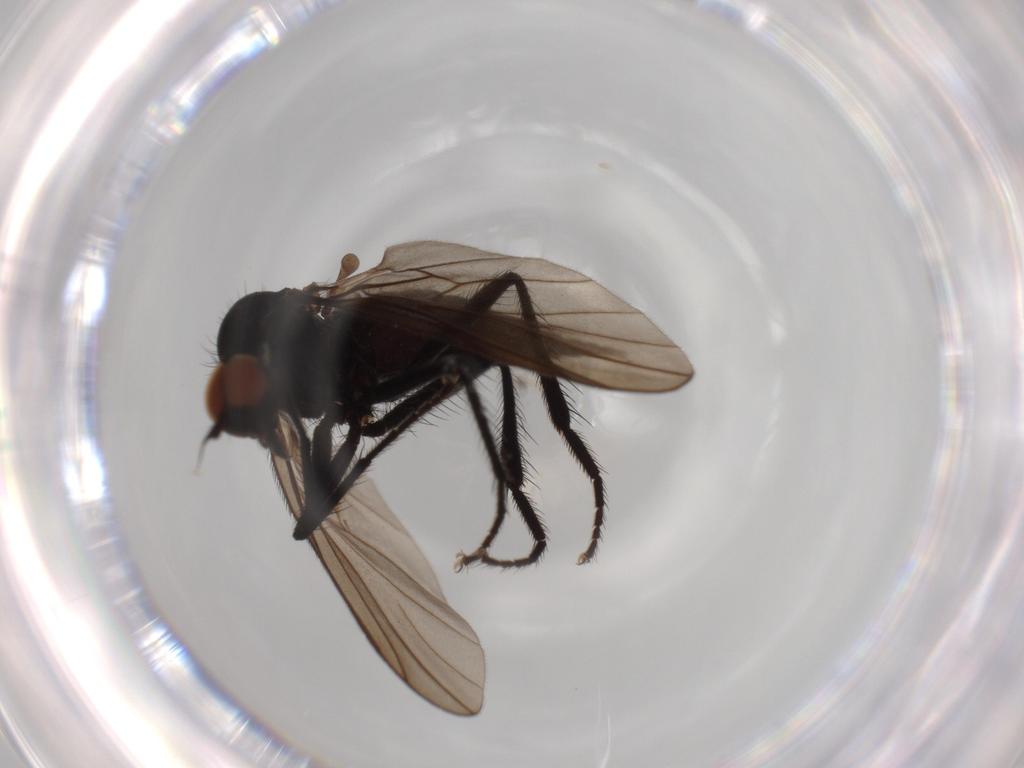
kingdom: Animalia
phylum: Arthropoda
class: Insecta
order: Diptera
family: Hybotidae
